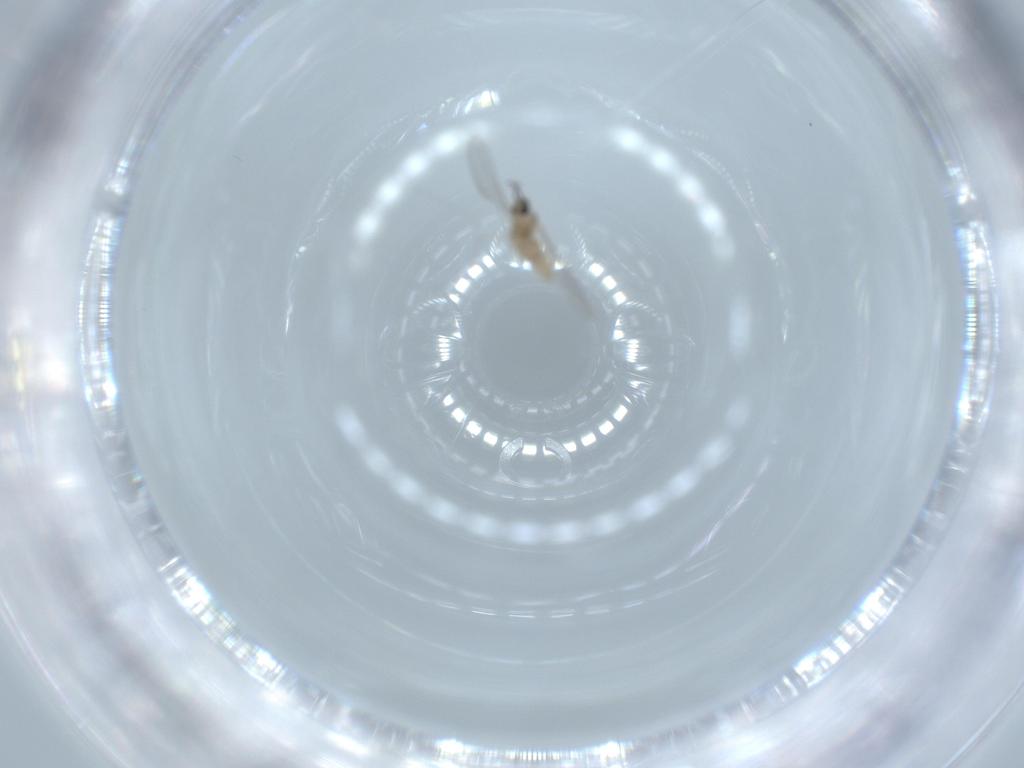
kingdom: Animalia
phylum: Arthropoda
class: Insecta
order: Diptera
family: Cecidomyiidae
